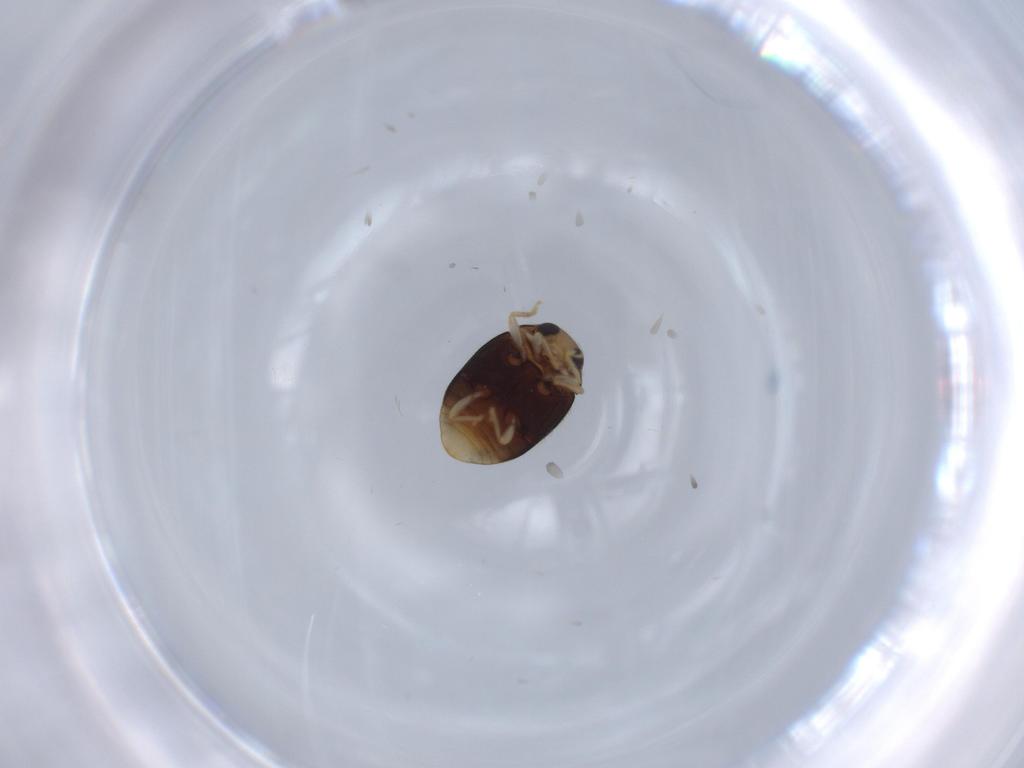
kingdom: Animalia
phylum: Arthropoda
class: Insecta
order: Coleoptera
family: Coccinellidae
